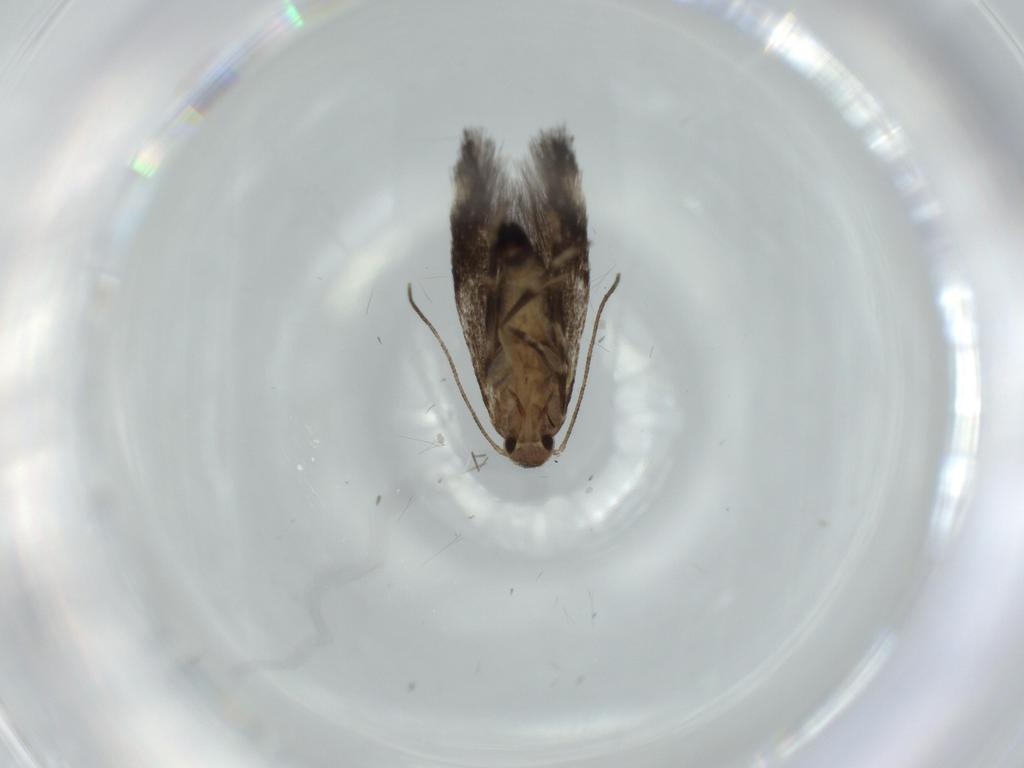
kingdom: Animalia
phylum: Arthropoda
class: Insecta
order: Lepidoptera
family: Cosmopterigidae
